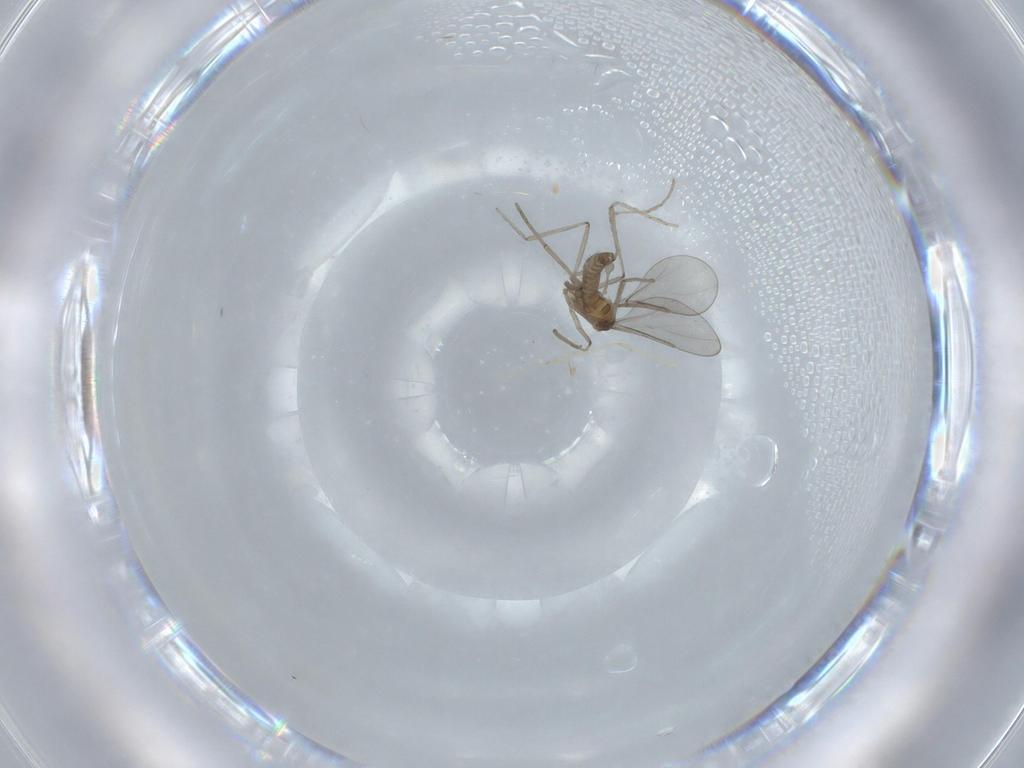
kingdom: Animalia
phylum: Arthropoda
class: Insecta
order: Diptera
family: Cecidomyiidae
